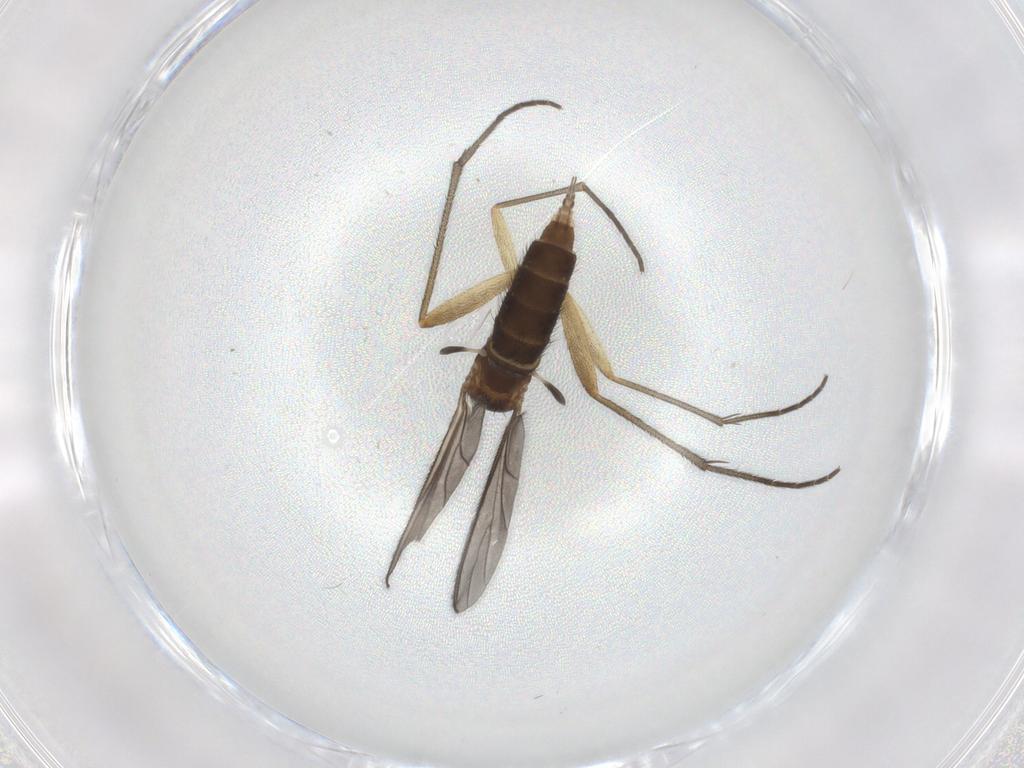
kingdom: Animalia
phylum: Arthropoda
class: Insecta
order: Diptera
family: Sciaridae
